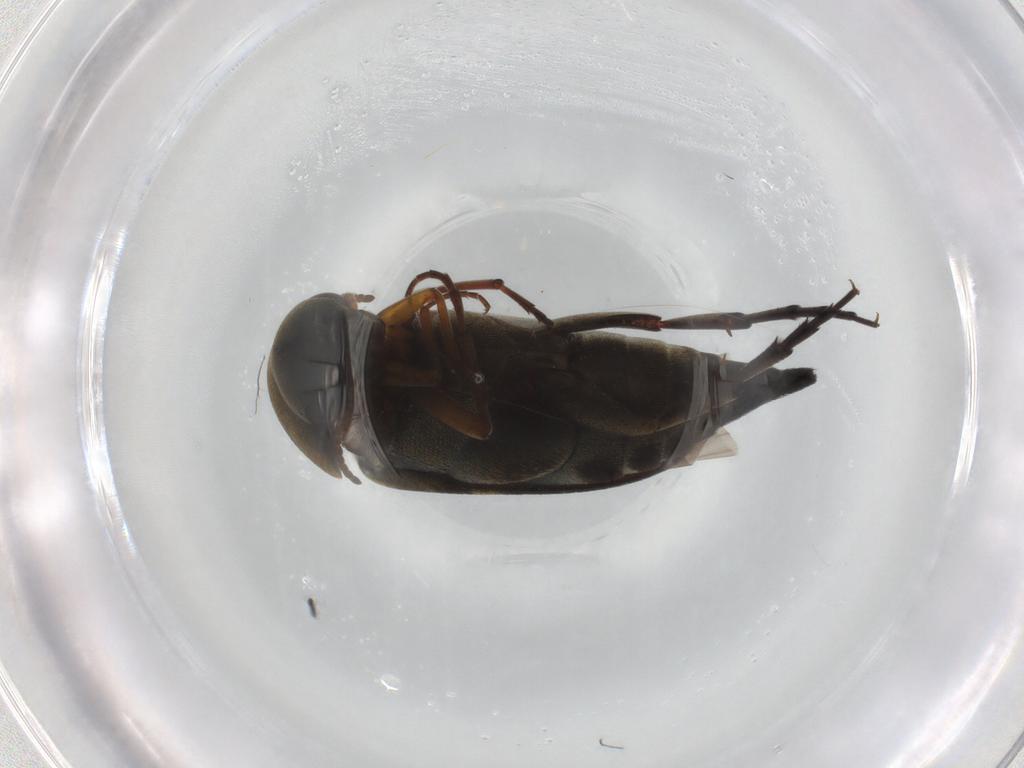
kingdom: Animalia
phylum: Arthropoda
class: Insecta
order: Coleoptera
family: Mordellidae
